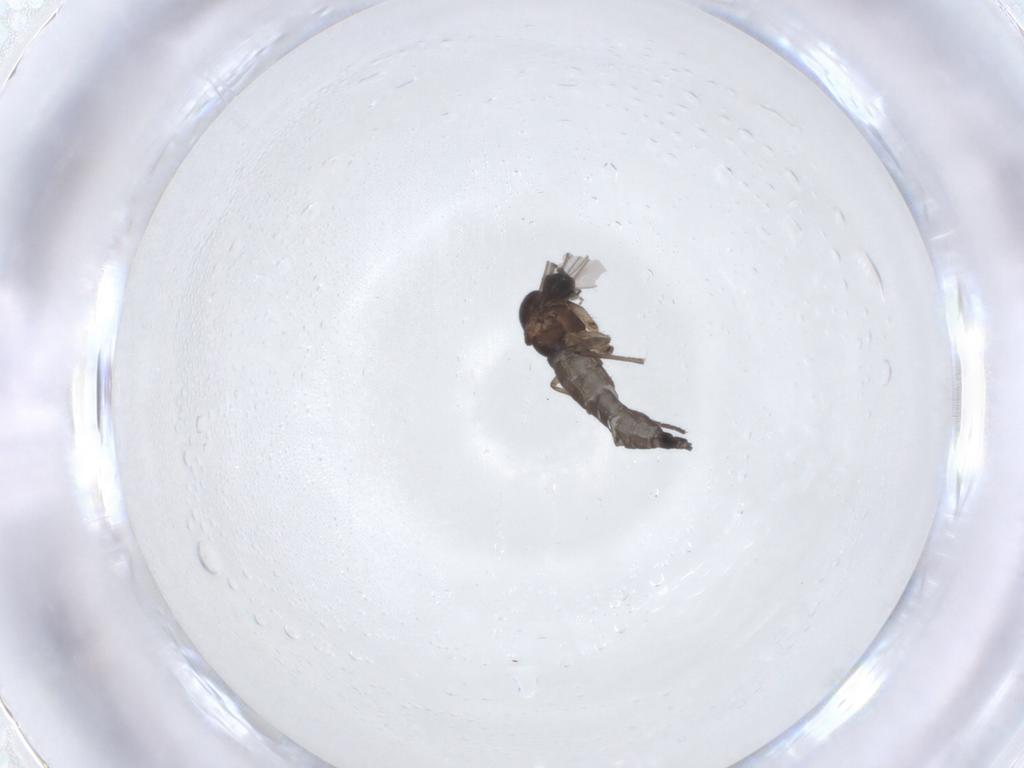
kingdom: Animalia
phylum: Arthropoda
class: Insecta
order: Diptera
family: Sciaridae
